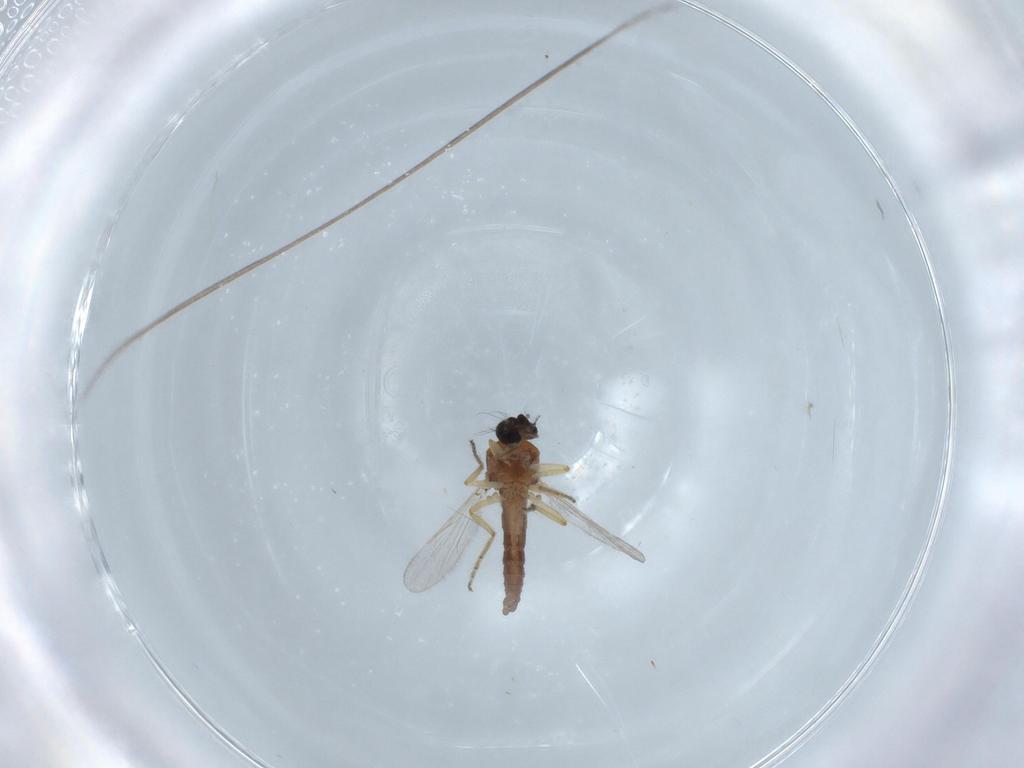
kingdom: Animalia
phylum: Arthropoda
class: Insecta
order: Diptera
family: Ceratopogonidae
